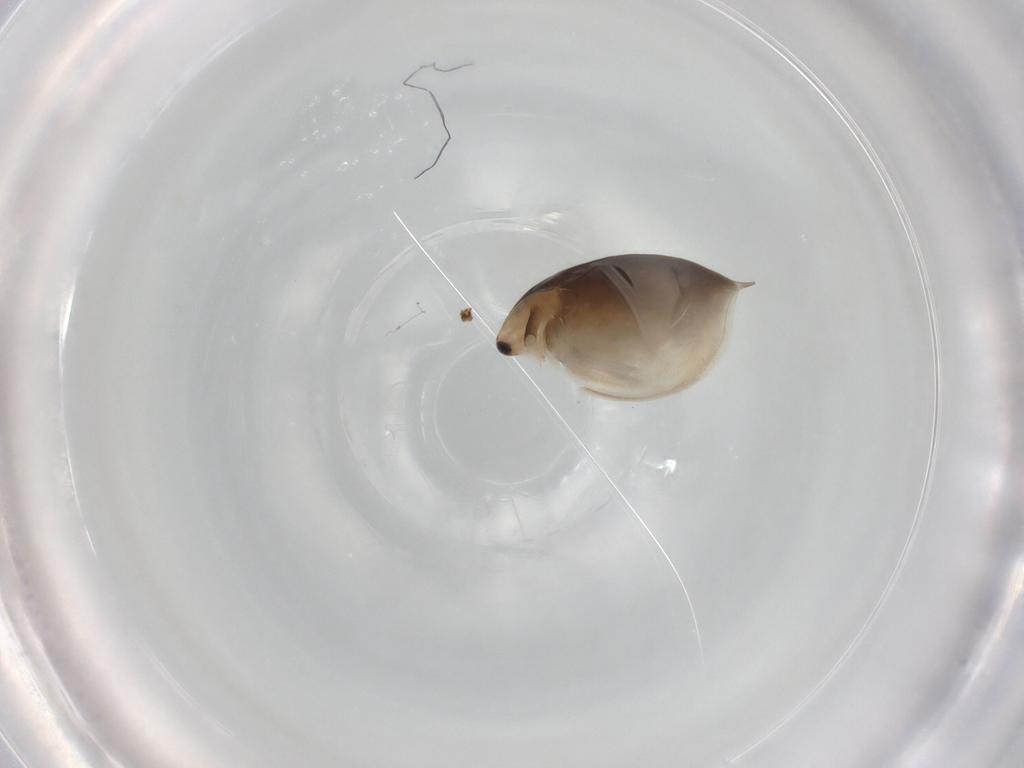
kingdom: Animalia
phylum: Arthropoda
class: Branchiopoda
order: Diplostraca
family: Daphniidae
